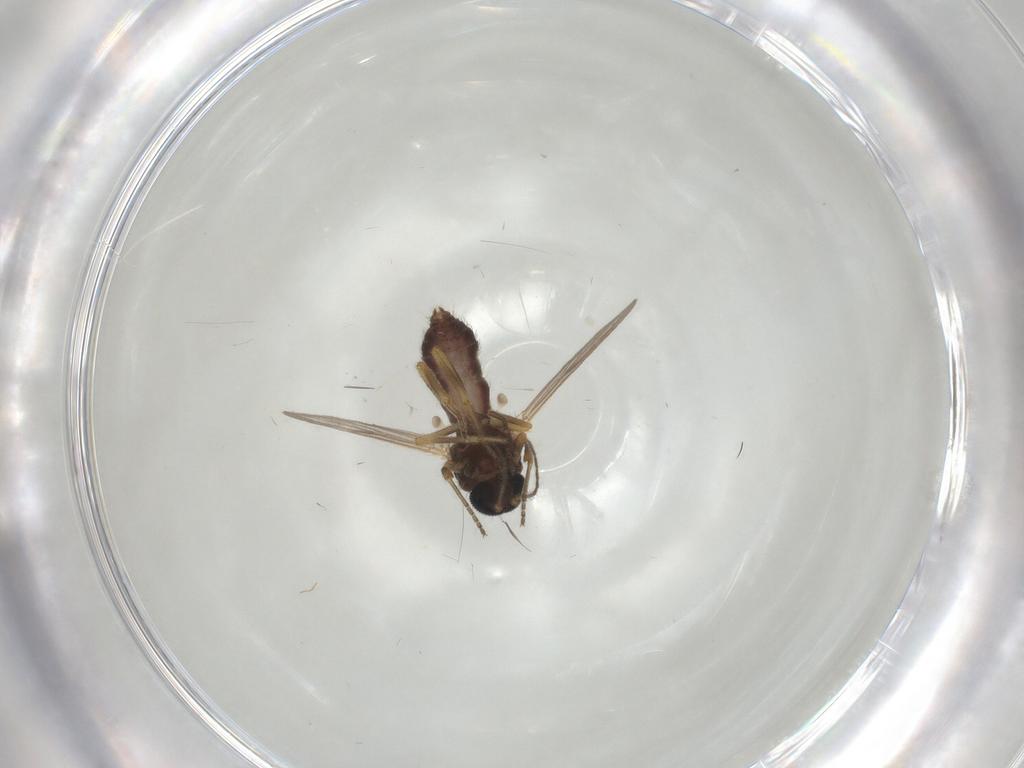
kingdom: Animalia
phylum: Arthropoda
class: Insecta
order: Diptera
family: Ceratopogonidae
